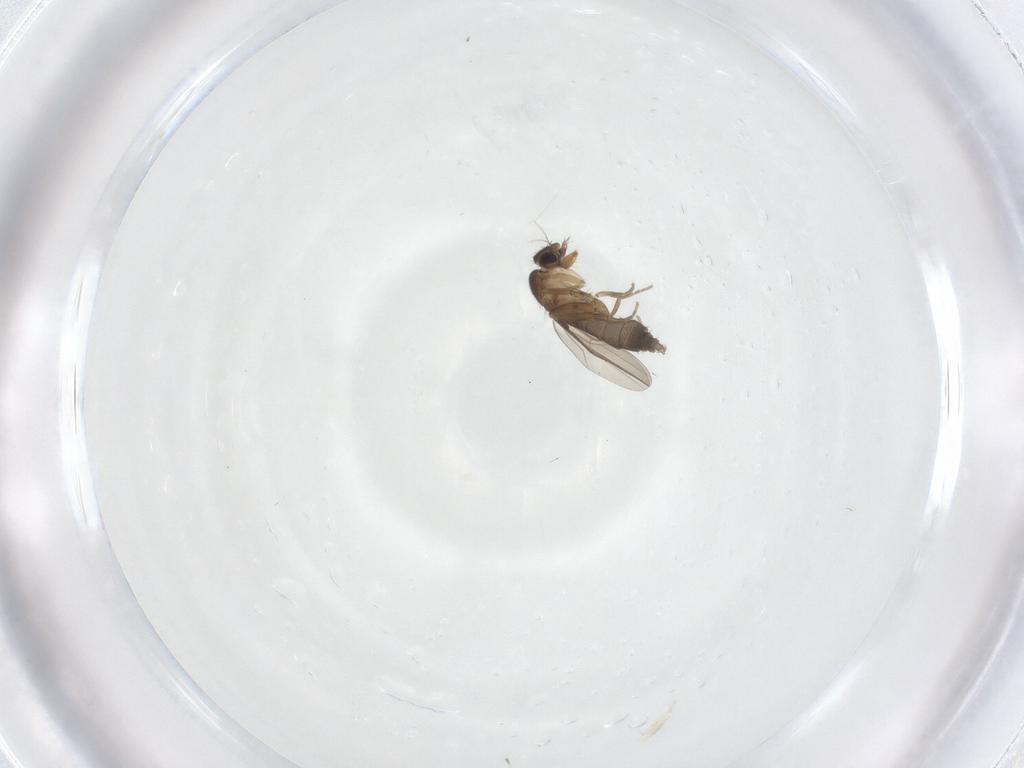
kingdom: Animalia
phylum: Arthropoda
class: Insecta
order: Diptera
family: Phoridae
